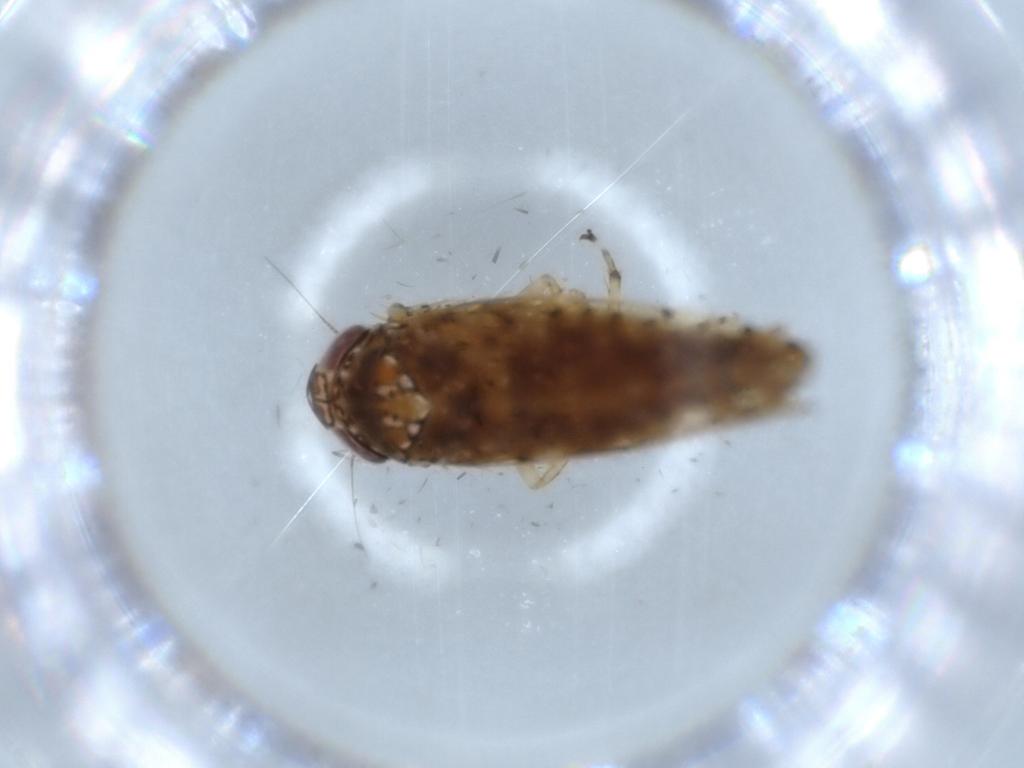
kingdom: Animalia
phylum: Arthropoda
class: Insecta
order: Hemiptera
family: Cicadellidae
